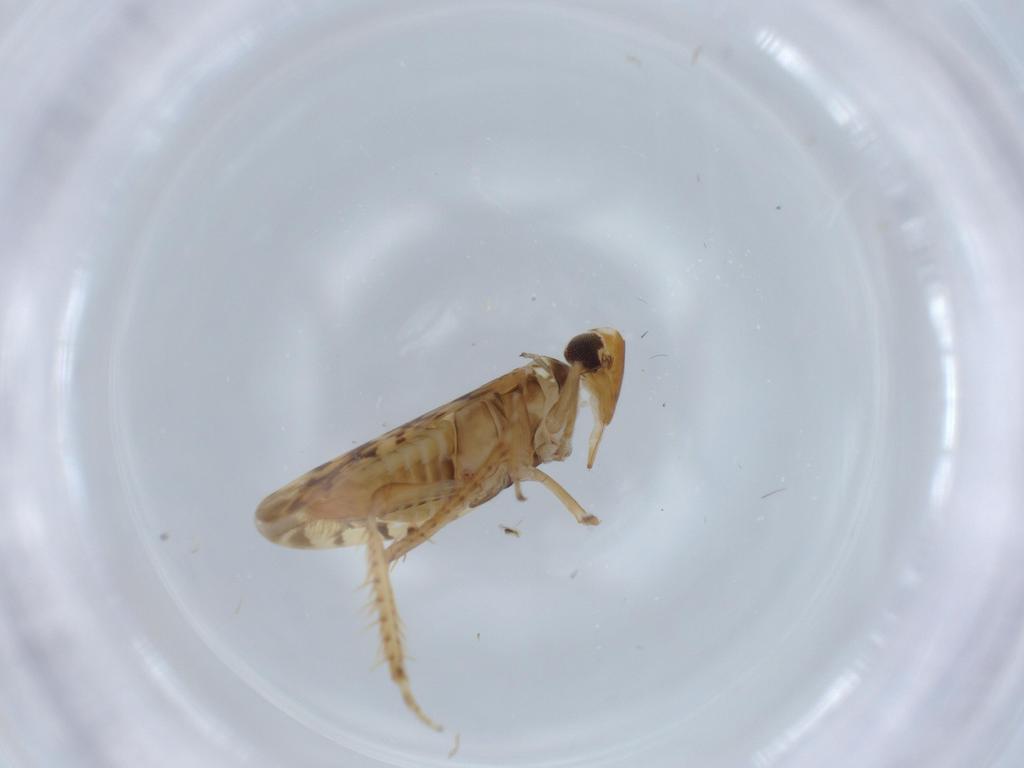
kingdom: Animalia
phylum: Arthropoda
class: Insecta
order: Hemiptera
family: Cicadellidae
